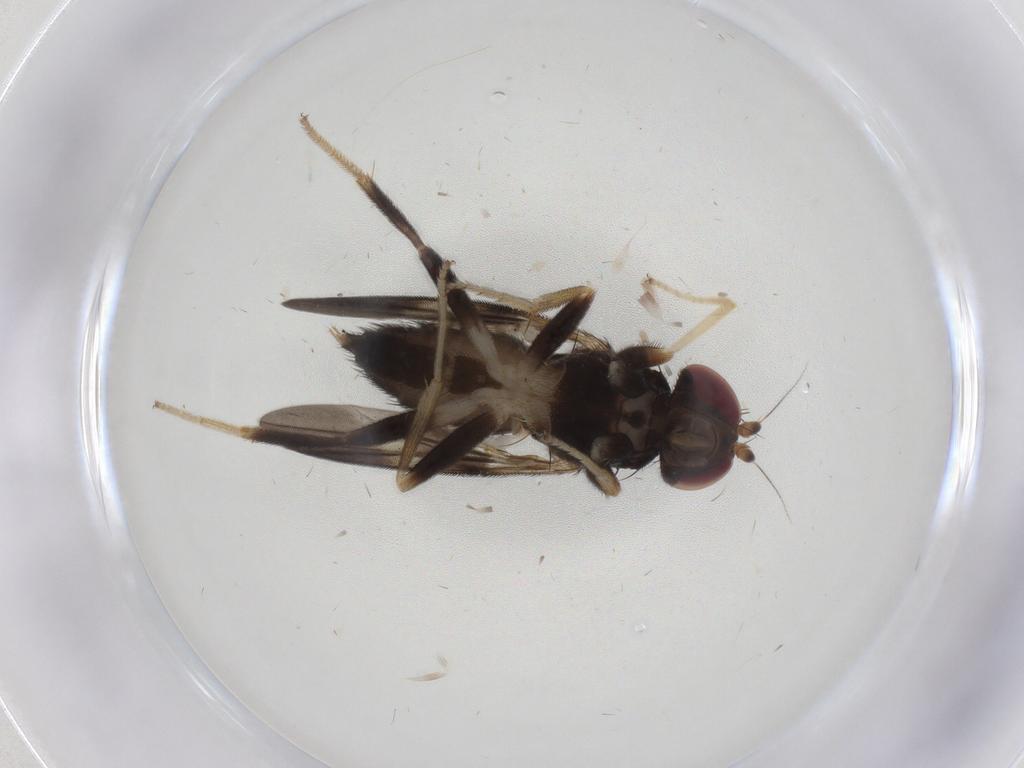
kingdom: Animalia
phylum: Arthropoda
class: Insecta
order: Diptera
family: Clusiidae
